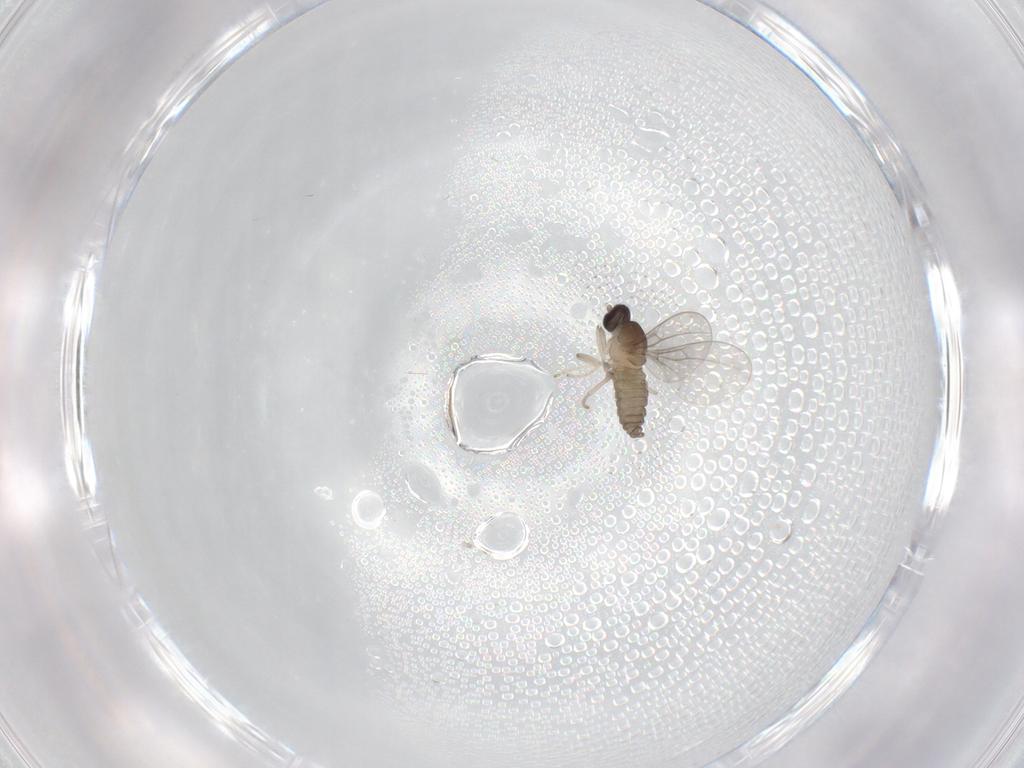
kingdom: Animalia
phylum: Arthropoda
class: Insecta
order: Diptera
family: Cecidomyiidae
